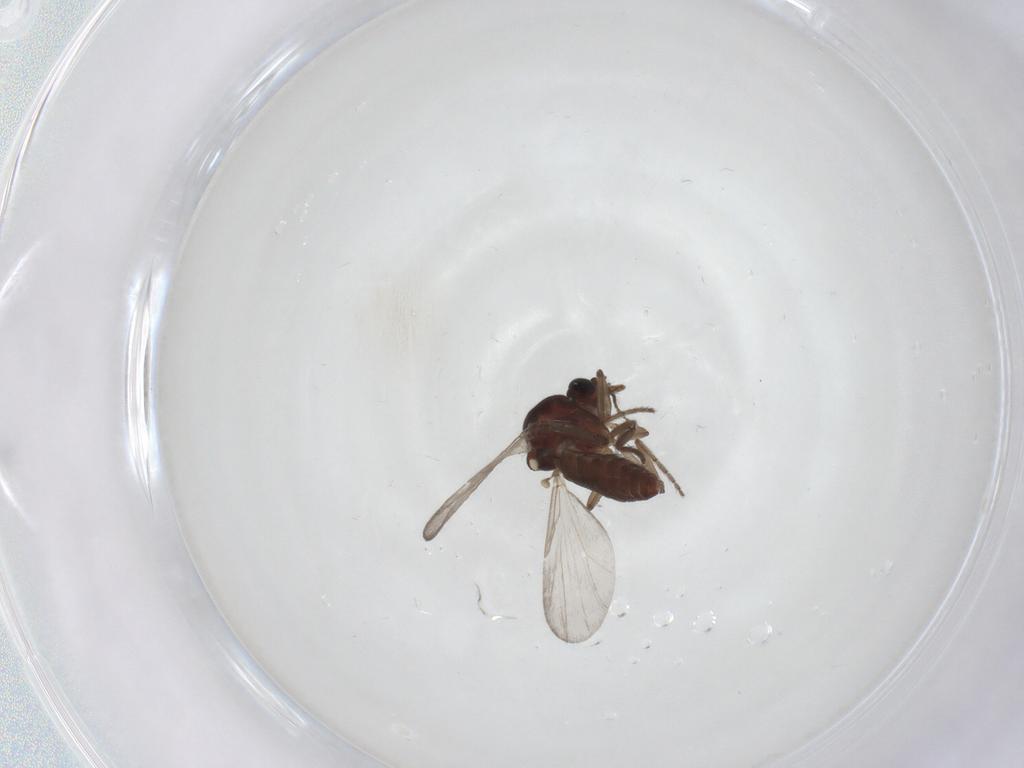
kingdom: Animalia
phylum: Arthropoda
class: Insecta
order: Diptera
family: Ceratopogonidae
